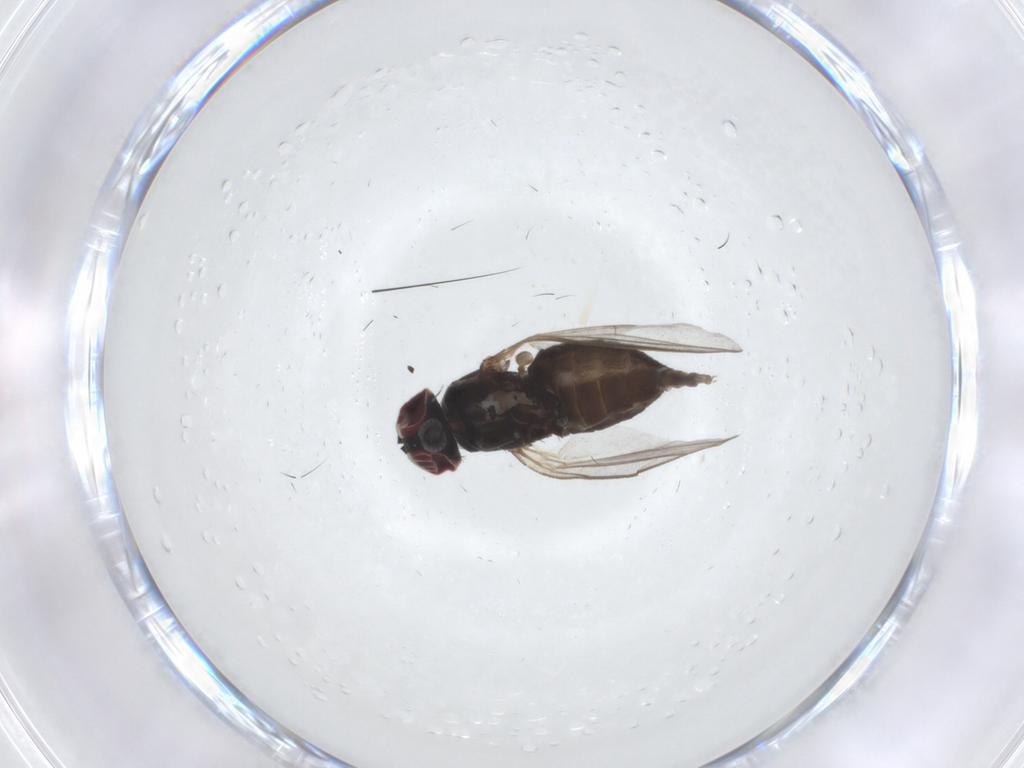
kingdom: Animalia
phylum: Arthropoda
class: Insecta
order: Diptera
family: Dolichopodidae
